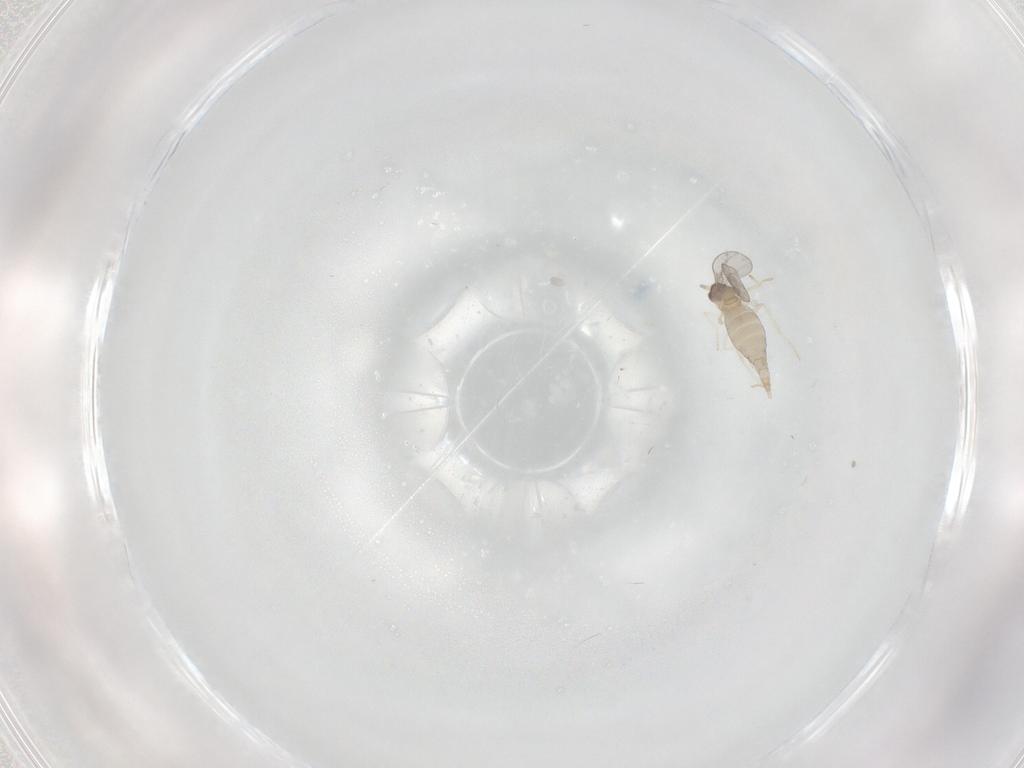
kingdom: Animalia
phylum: Arthropoda
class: Insecta
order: Diptera
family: Cecidomyiidae
